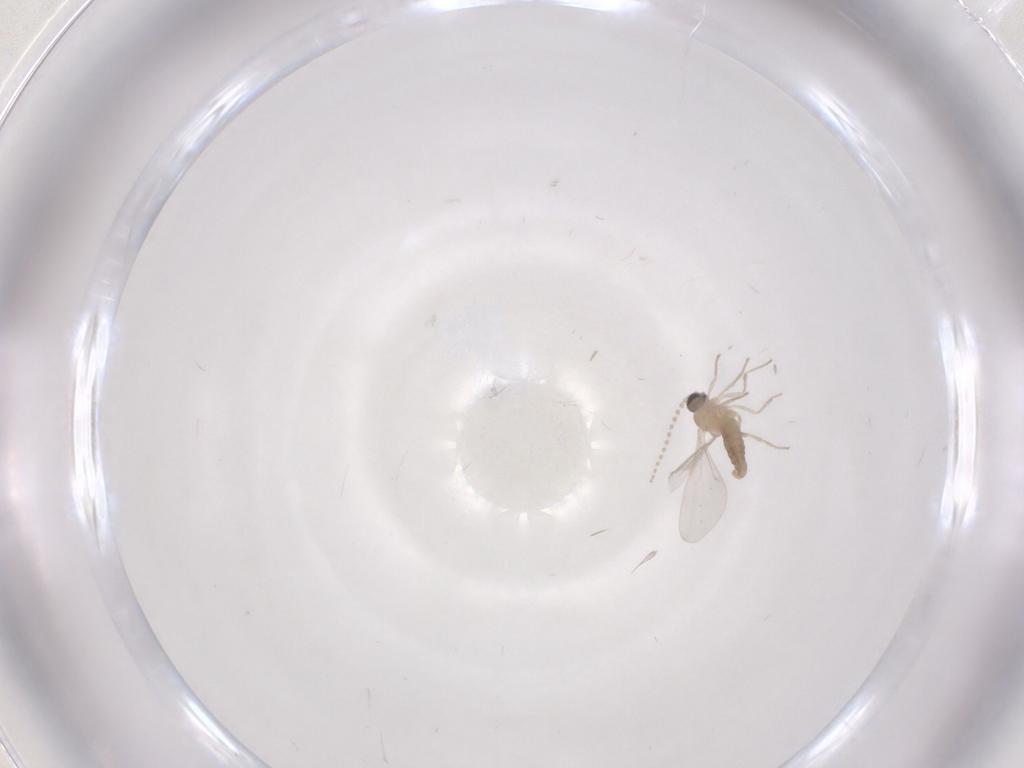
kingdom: Animalia
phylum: Arthropoda
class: Insecta
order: Diptera
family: Cecidomyiidae
